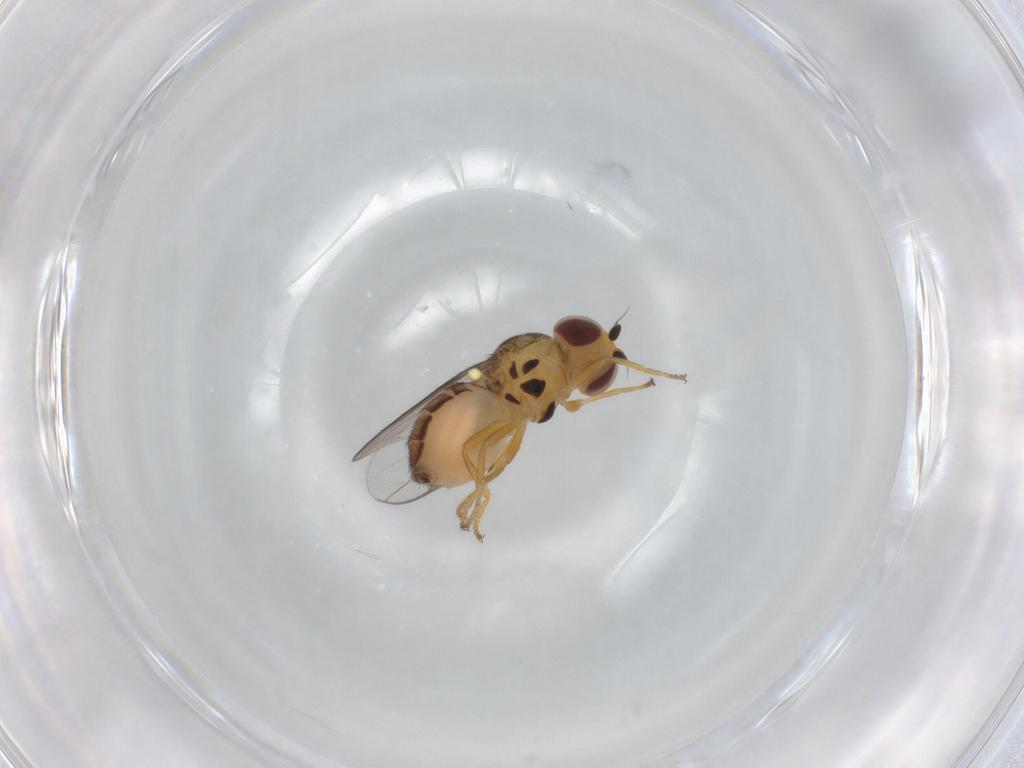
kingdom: Animalia
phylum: Arthropoda
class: Insecta
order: Diptera
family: Chloropidae
